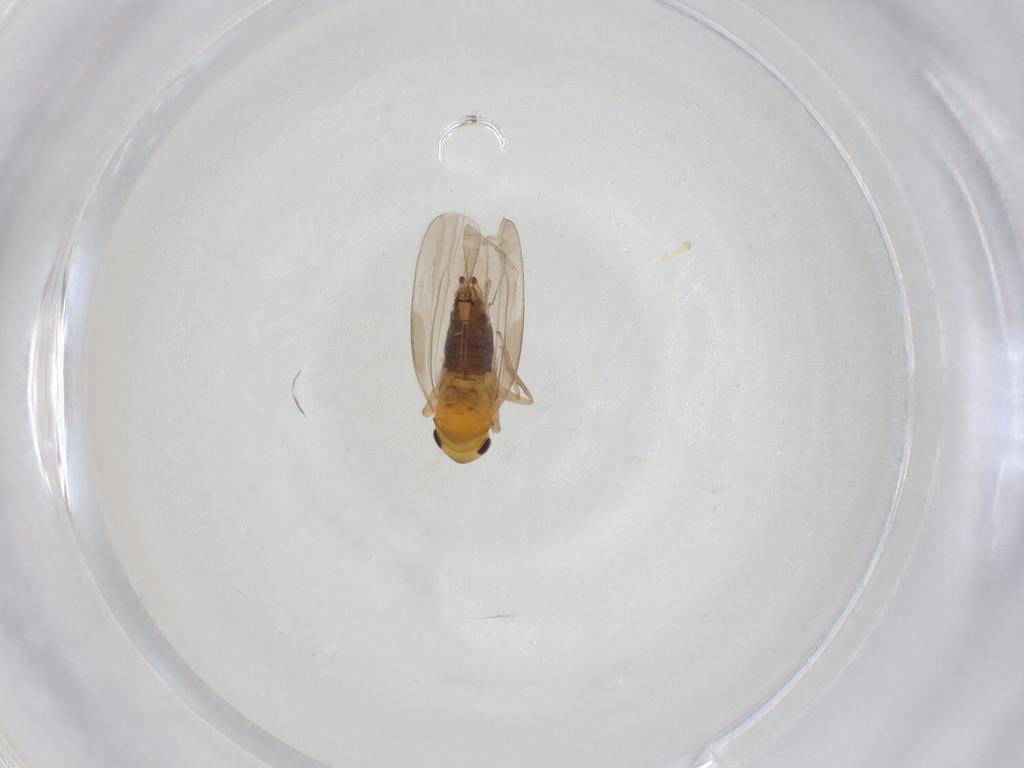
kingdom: Animalia
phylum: Arthropoda
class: Insecta
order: Hemiptera
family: Cicadellidae
